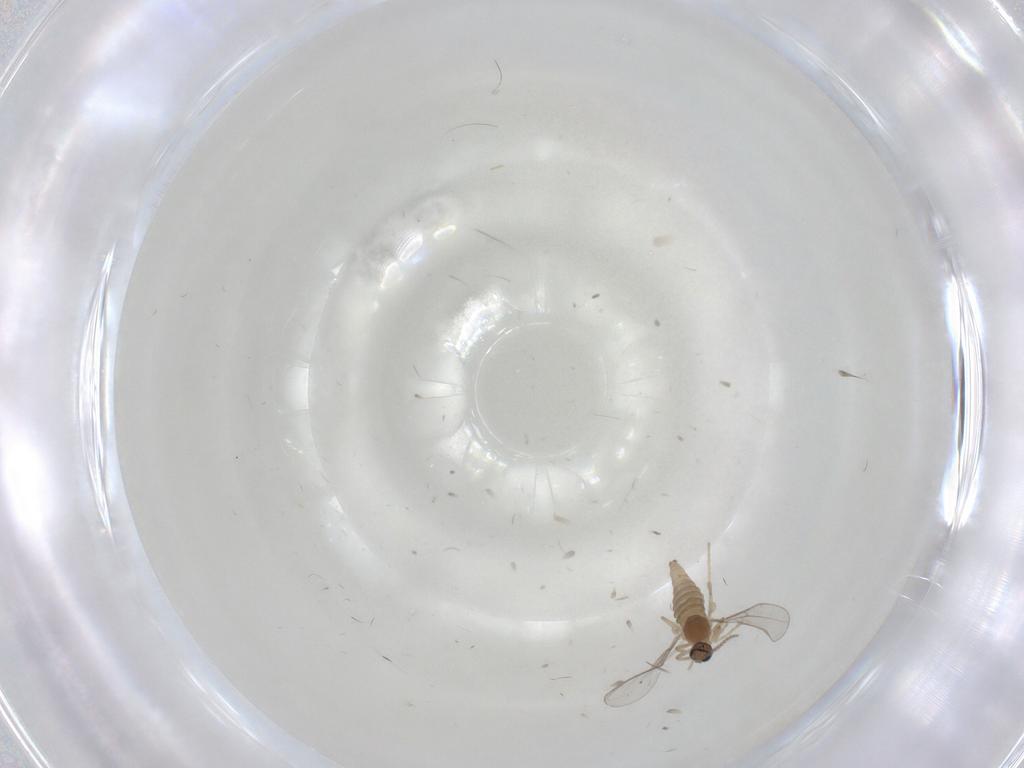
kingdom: Animalia
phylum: Arthropoda
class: Insecta
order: Diptera
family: Cecidomyiidae
